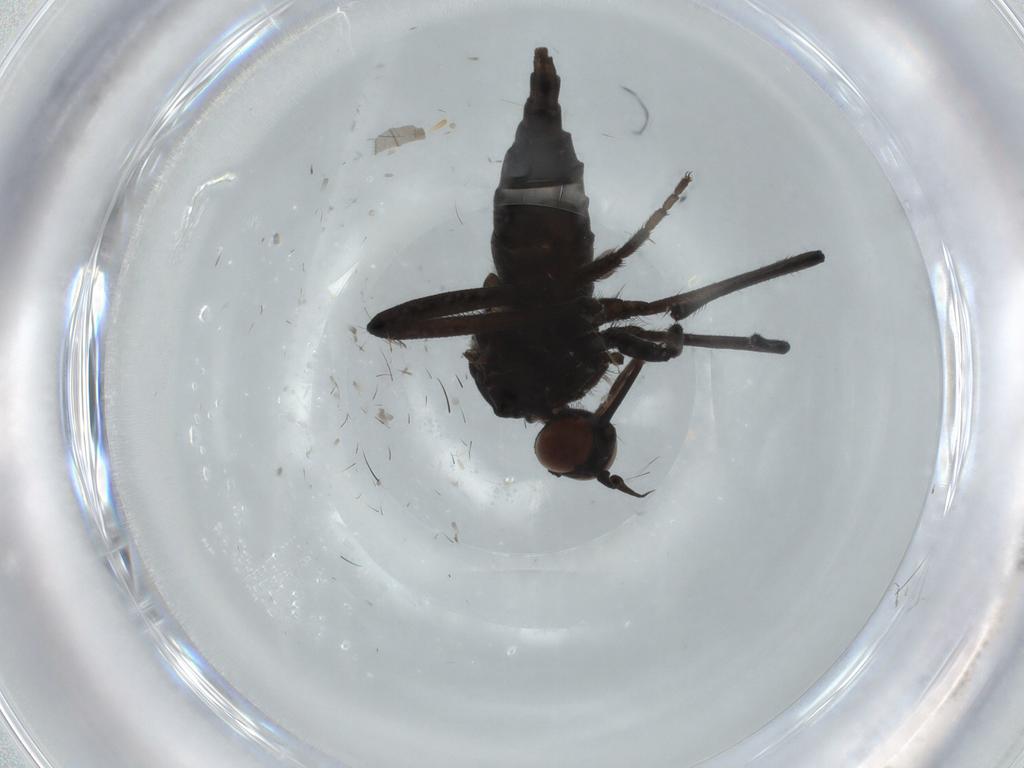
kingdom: Animalia
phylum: Arthropoda
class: Insecta
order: Diptera
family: Empididae
